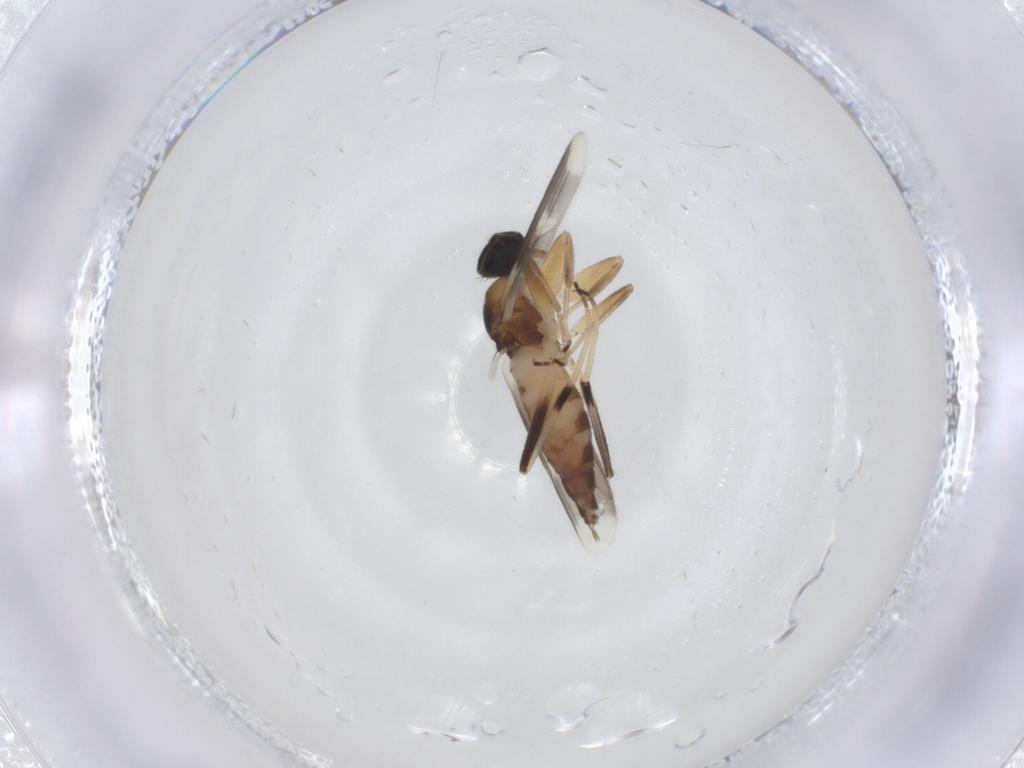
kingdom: Animalia
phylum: Arthropoda
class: Insecta
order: Diptera
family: Cecidomyiidae
